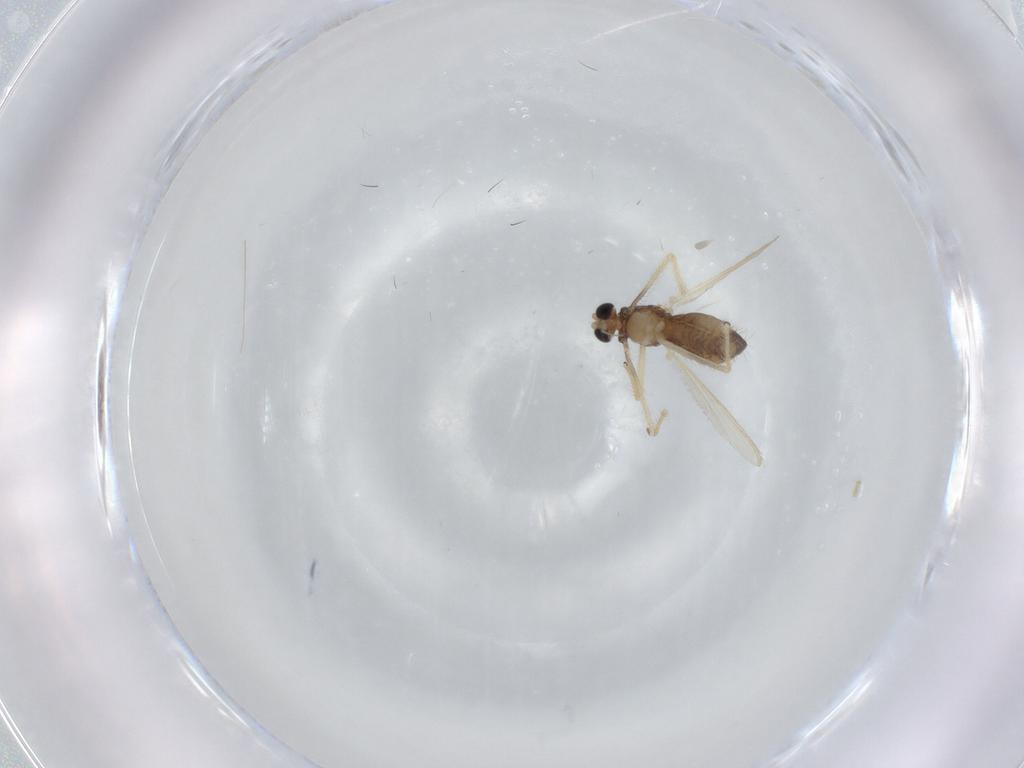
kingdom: Animalia
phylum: Arthropoda
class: Insecta
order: Diptera
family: Chironomidae
